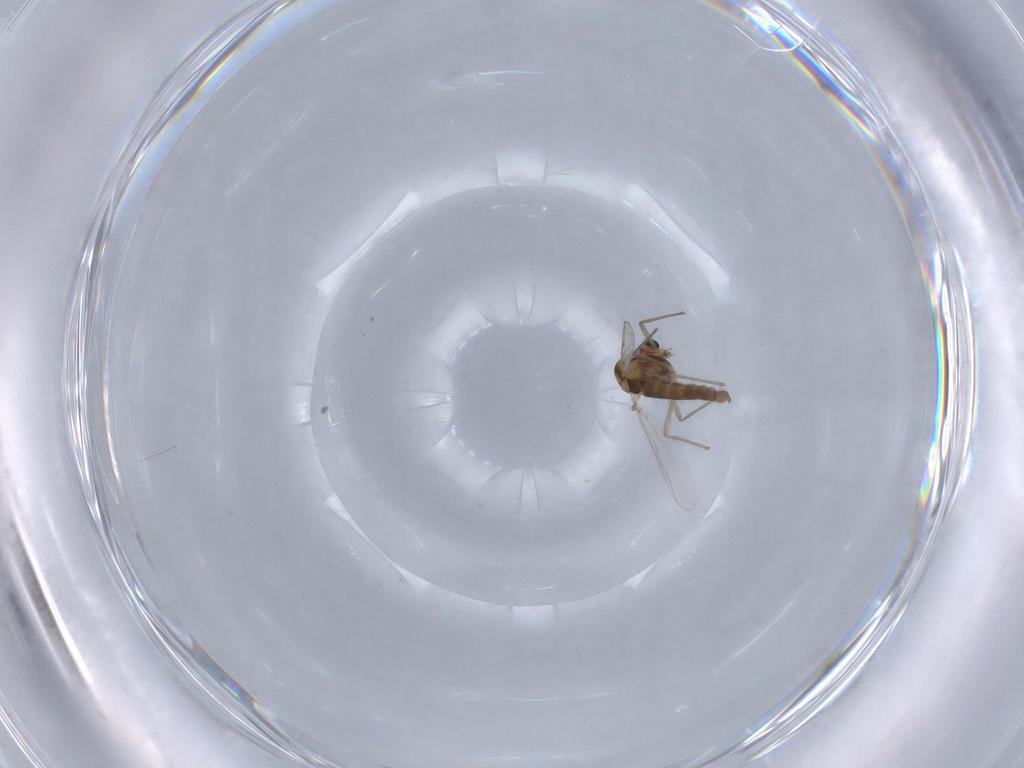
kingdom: Animalia
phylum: Arthropoda
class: Insecta
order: Diptera
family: Chironomidae
